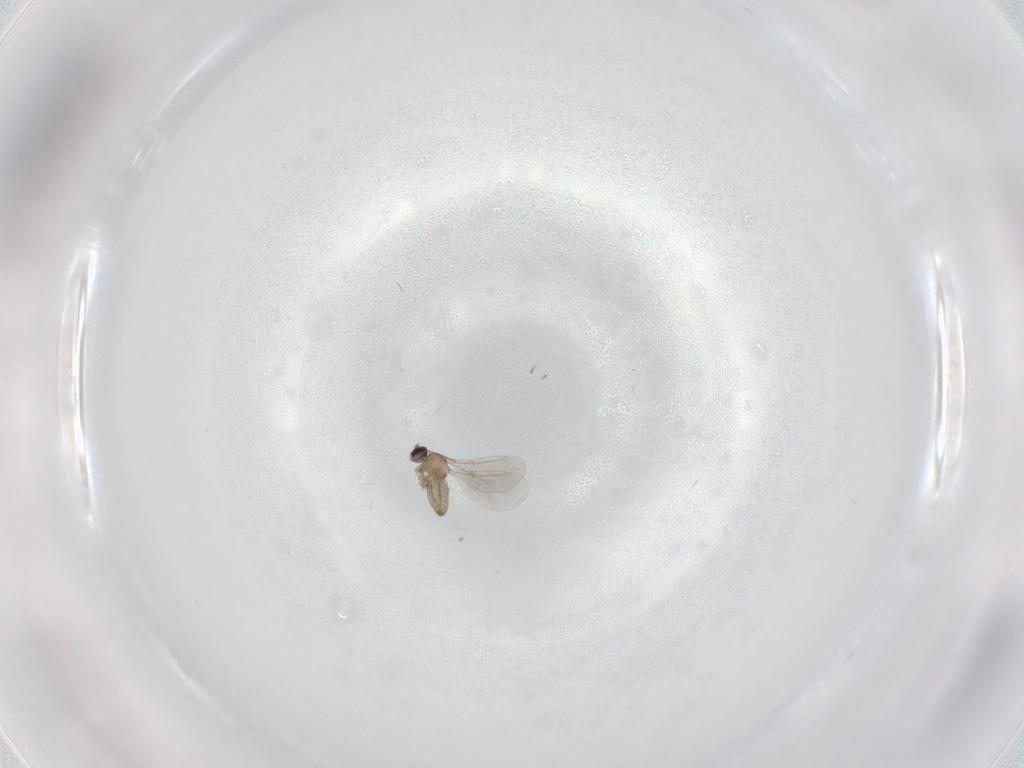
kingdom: Animalia
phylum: Arthropoda
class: Insecta
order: Diptera
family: Cecidomyiidae
